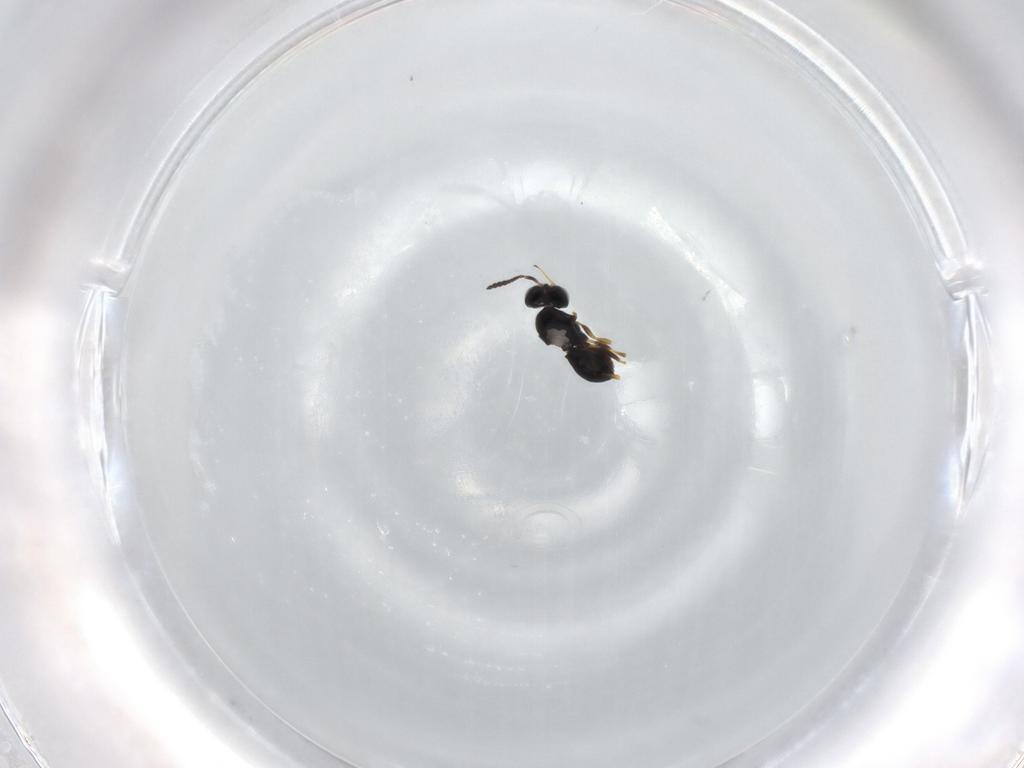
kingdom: Animalia
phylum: Arthropoda
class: Insecta
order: Hymenoptera
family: Scelionidae
